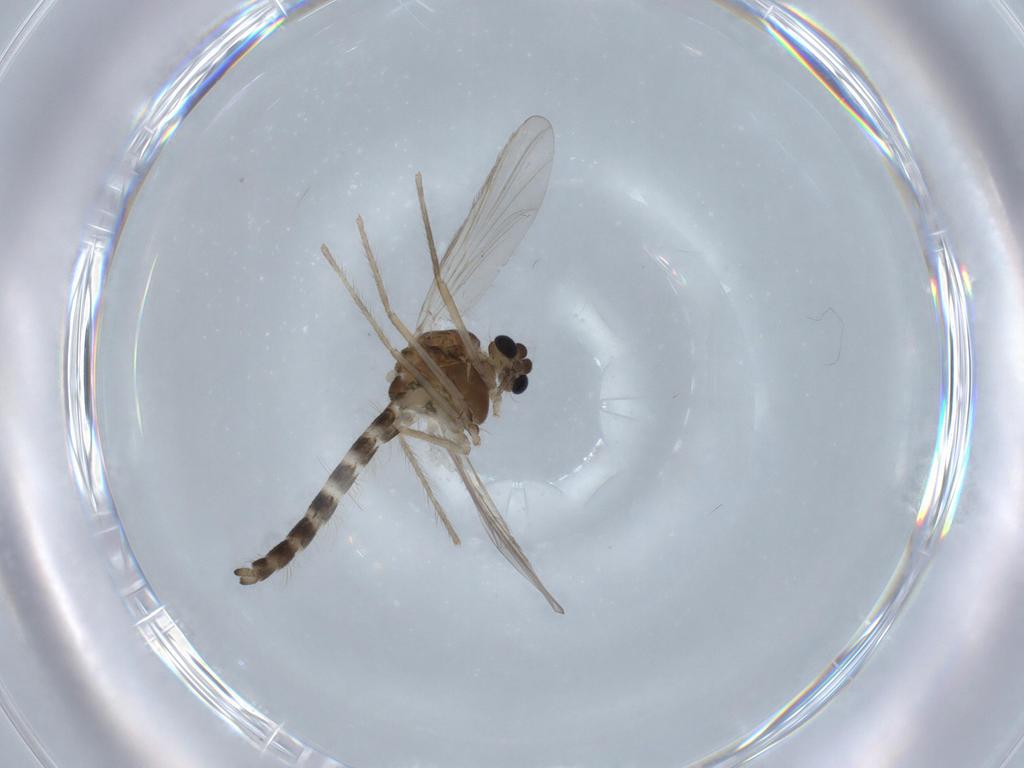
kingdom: Animalia
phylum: Arthropoda
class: Insecta
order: Diptera
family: Chironomidae
